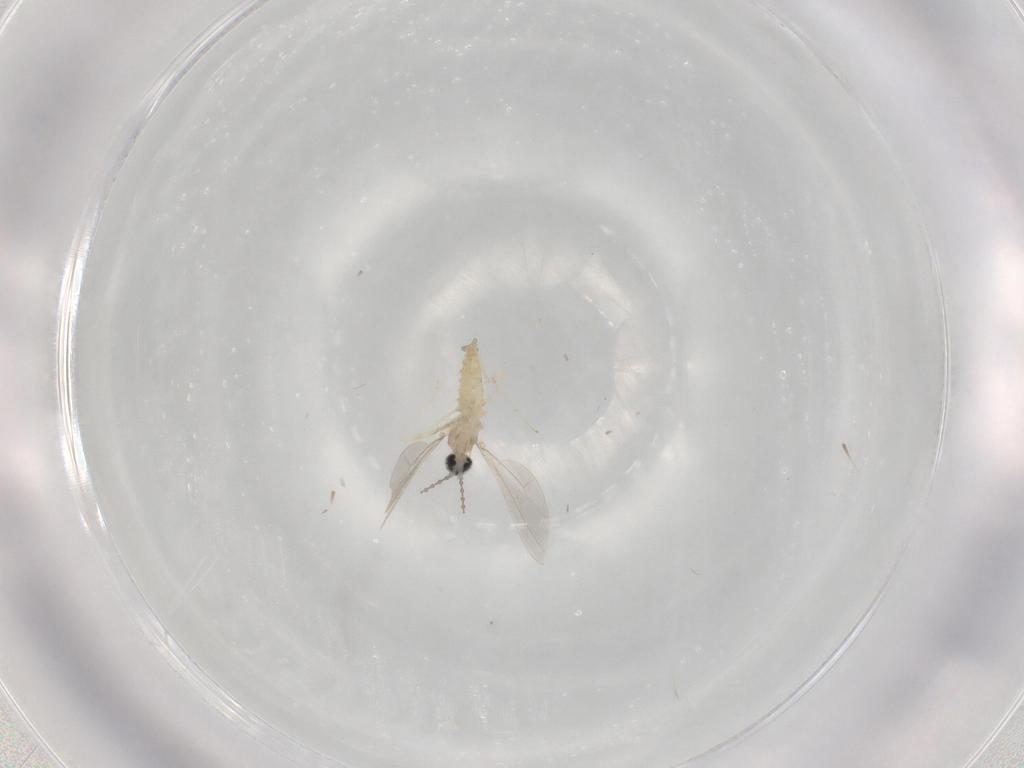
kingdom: Animalia
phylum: Arthropoda
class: Insecta
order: Diptera
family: Cecidomyiidae
